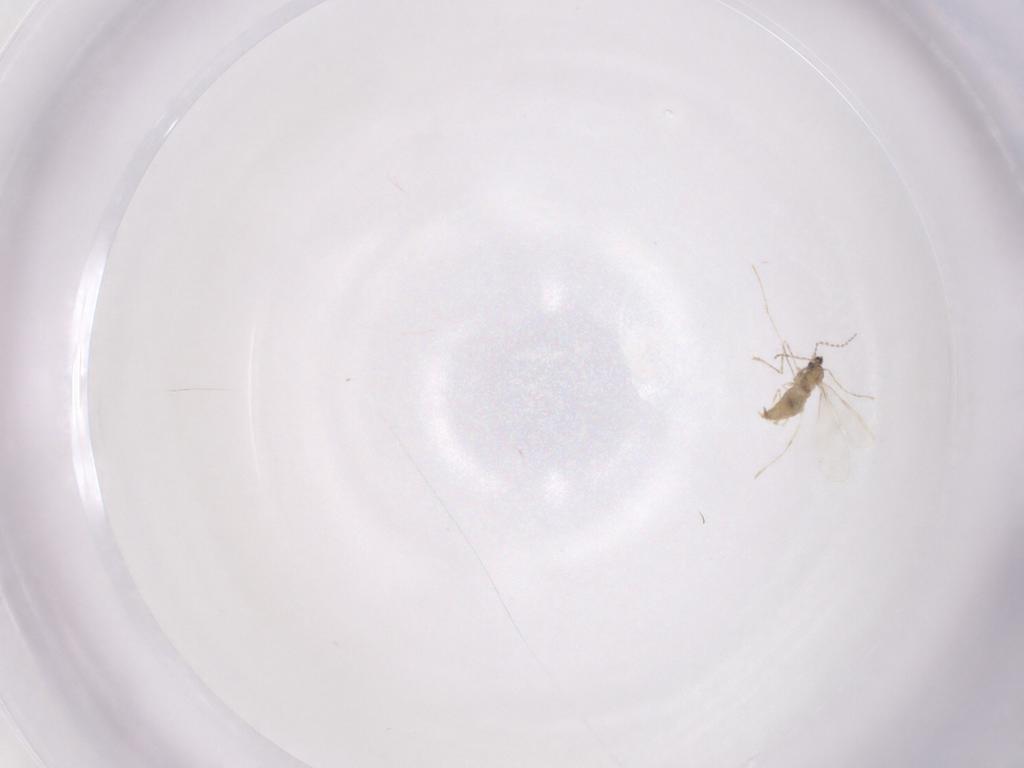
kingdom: Animalia
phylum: Arthropoda
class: Insecta
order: Diptera
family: Cecidomyiidae
